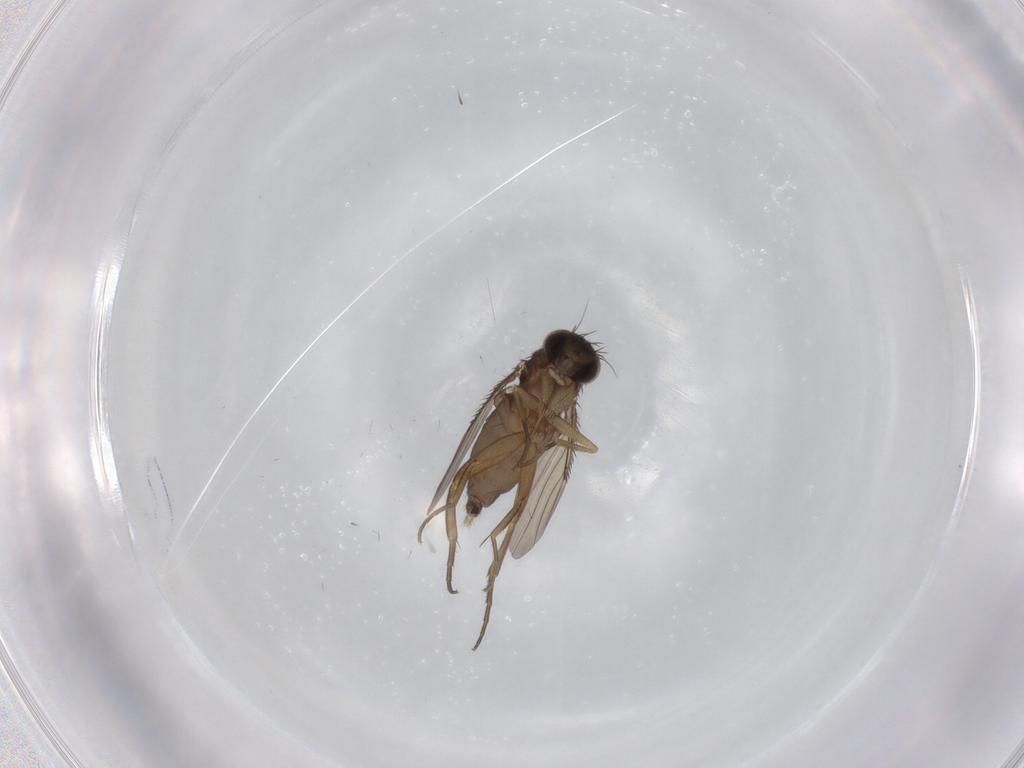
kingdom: Animalia
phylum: Arthropoda
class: Insecta
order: Diptera
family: Phoridae
